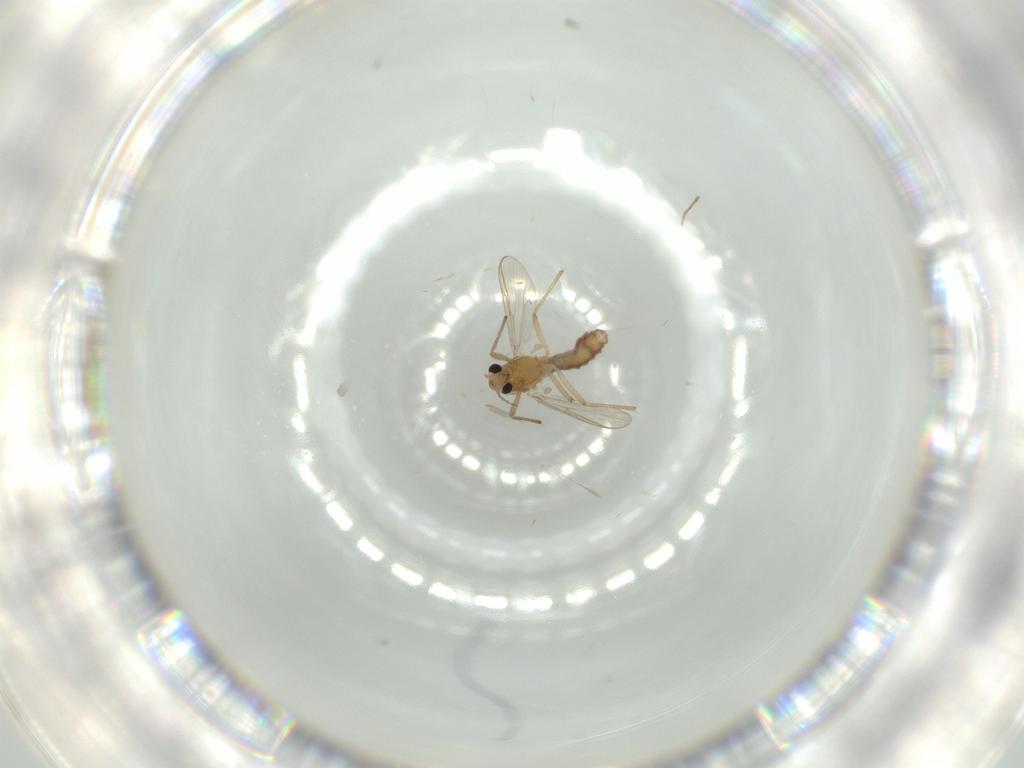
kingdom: Animalia
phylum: Arthropoda
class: Insecta
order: Diptera
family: Chironomidae
